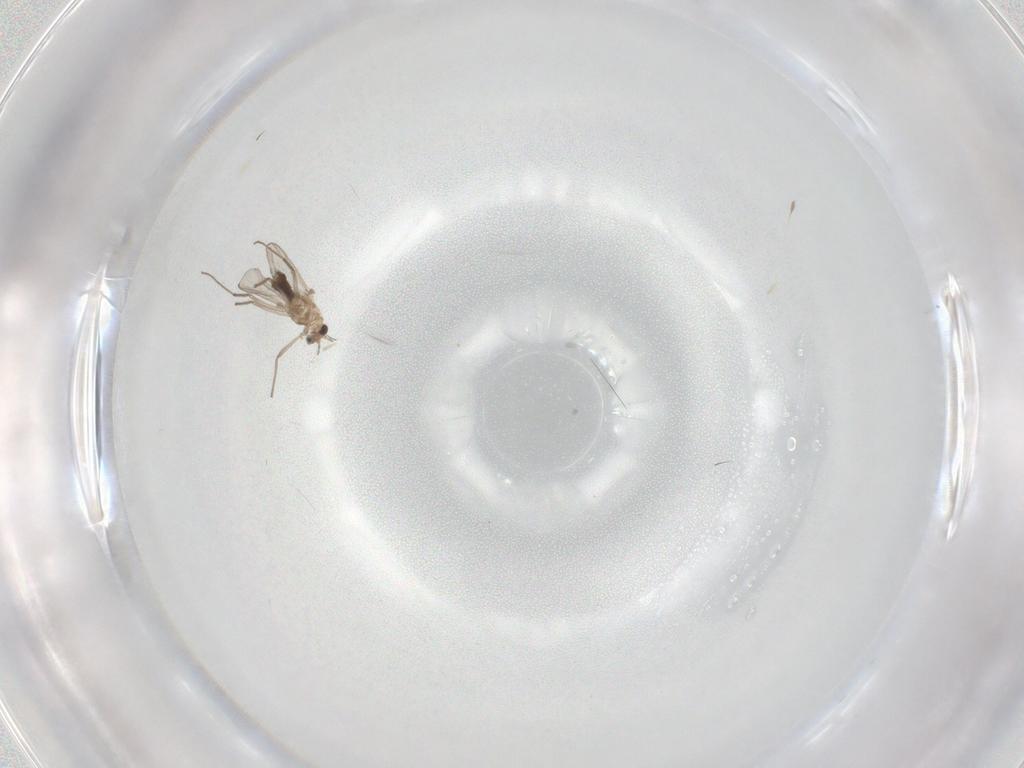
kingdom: Animalia
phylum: Arthropoda
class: Insecta
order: Diptera
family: Chironomidae
